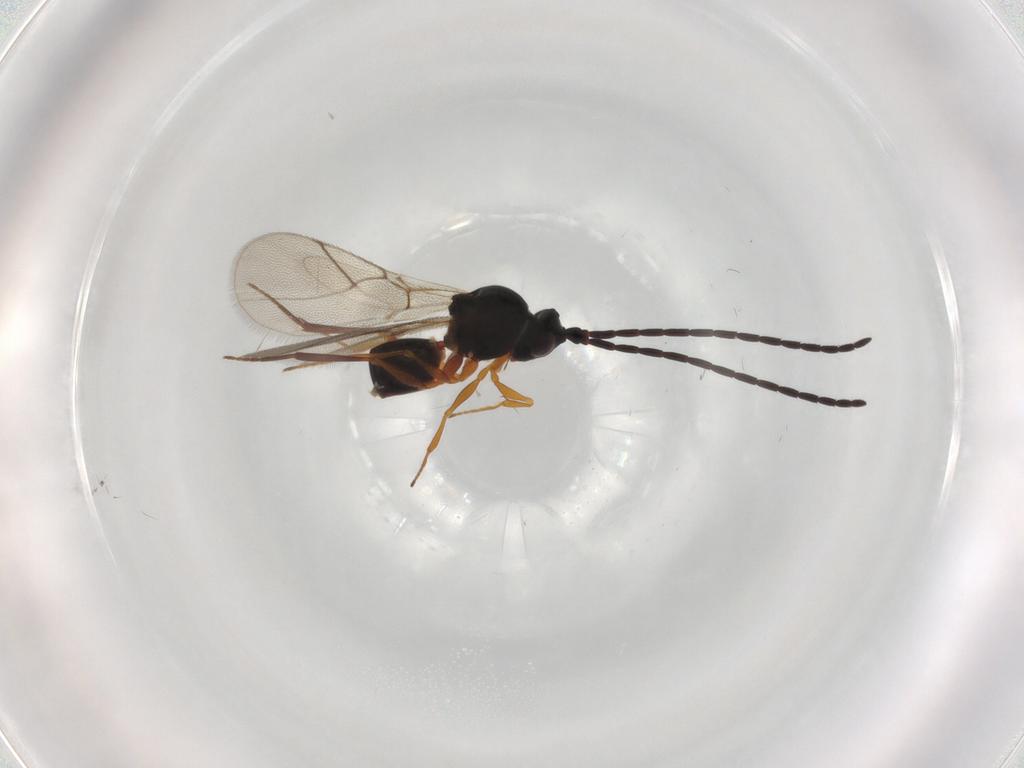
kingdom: Animalia
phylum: Arthropoda
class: Insecta
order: Hymenoptera
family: Figitidae
